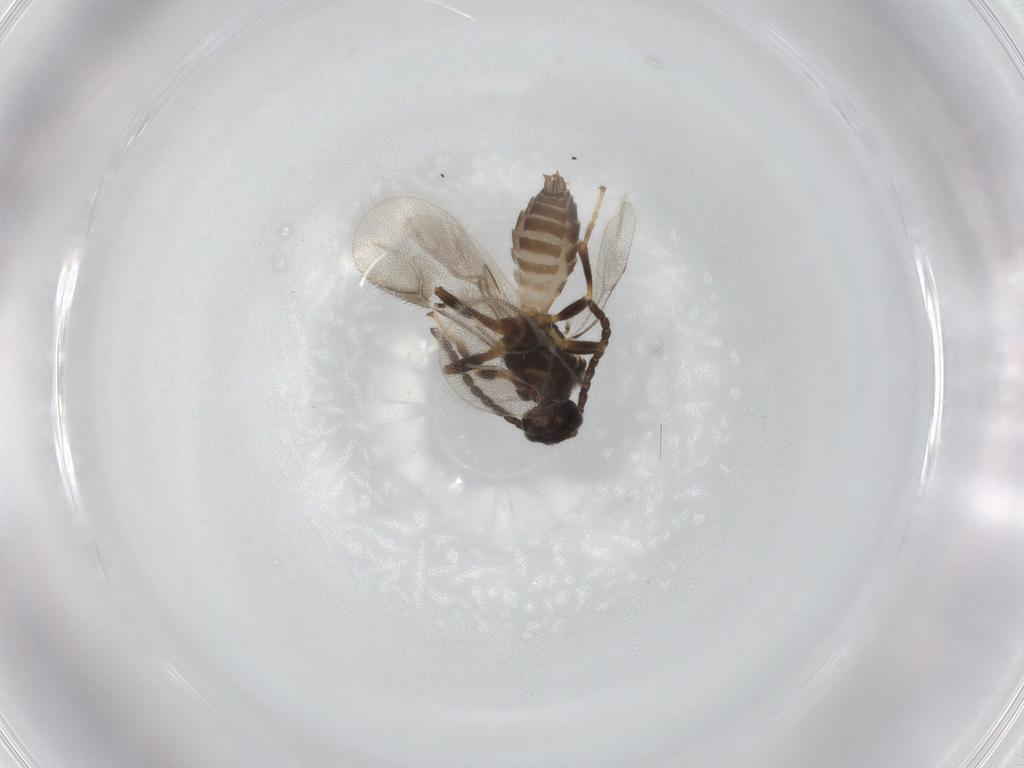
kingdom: Animalia
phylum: Arthropoda
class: Insecta
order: Hymenoptera
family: Braconidae
